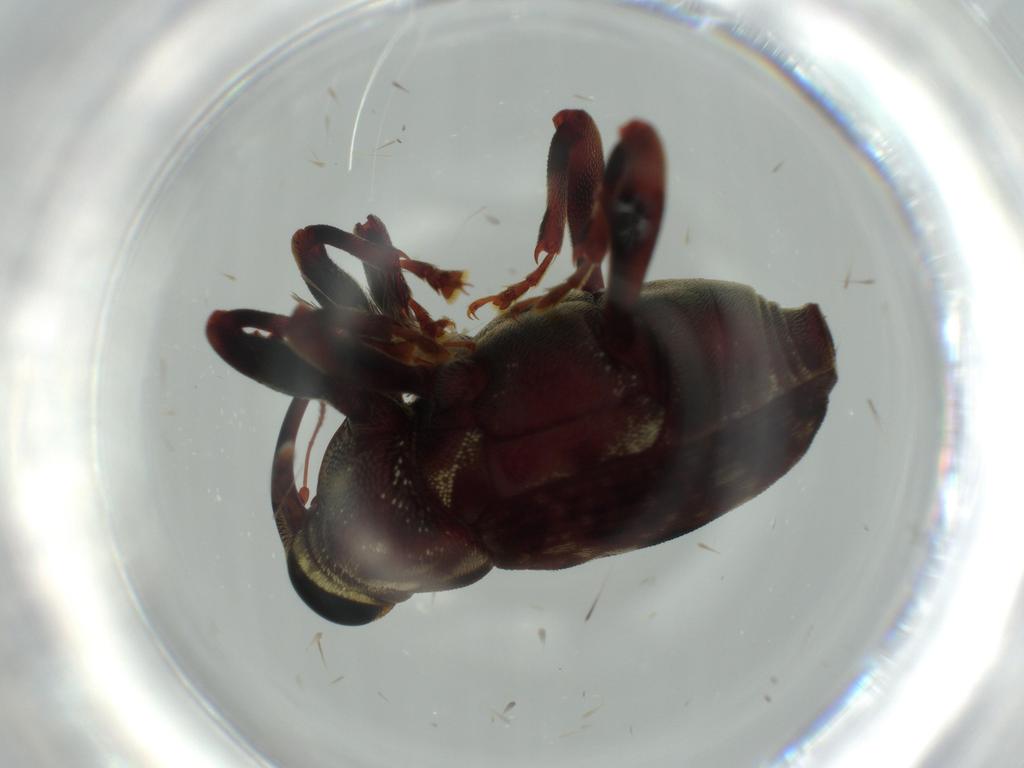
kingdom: Animalia
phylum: Arthropoda
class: Insecta
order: Coleoptera
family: Curculionidae
